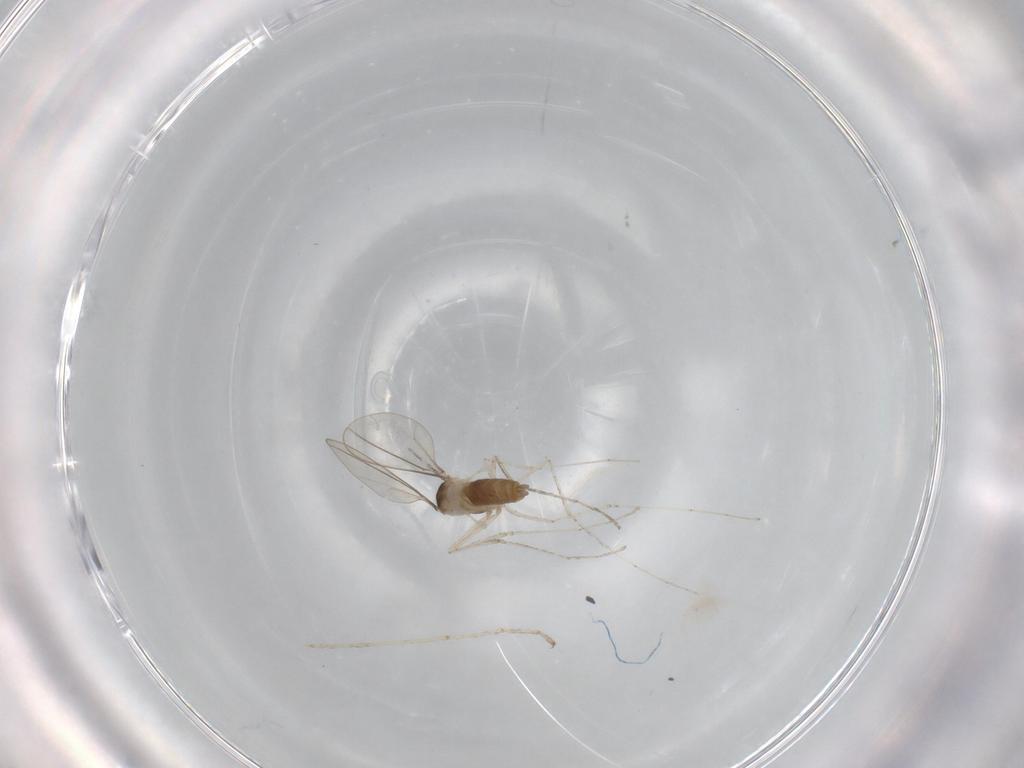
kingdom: Animalia
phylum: Arthropoda
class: Insecta
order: Diptera
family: Cecidomyiidae
